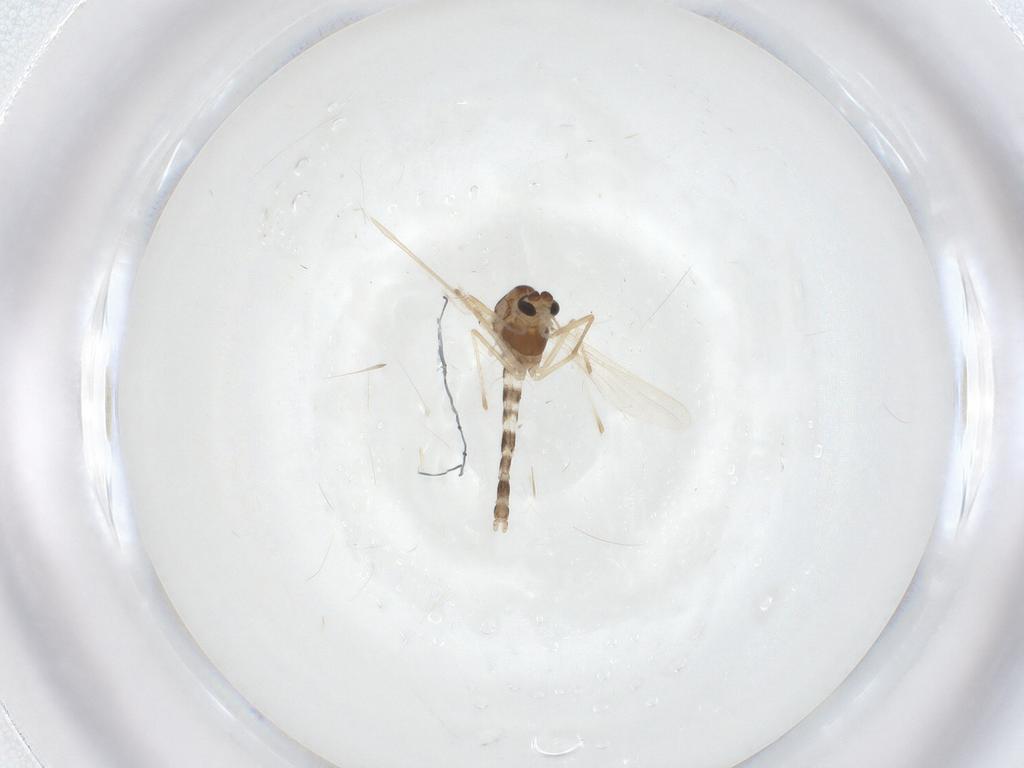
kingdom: Animalia
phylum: Arthropoda
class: Insecta
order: Diptera
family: Chironomidae
